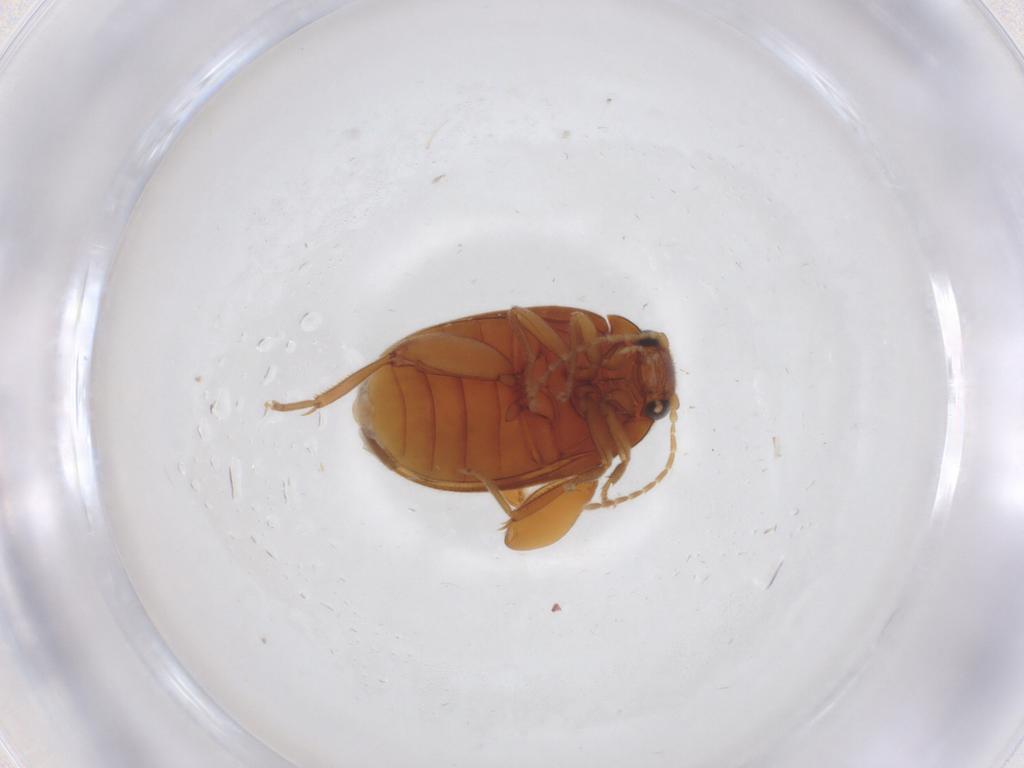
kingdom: Animalia
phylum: Arthropoda
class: Insecta
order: Coleoptera
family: Scirtidae
